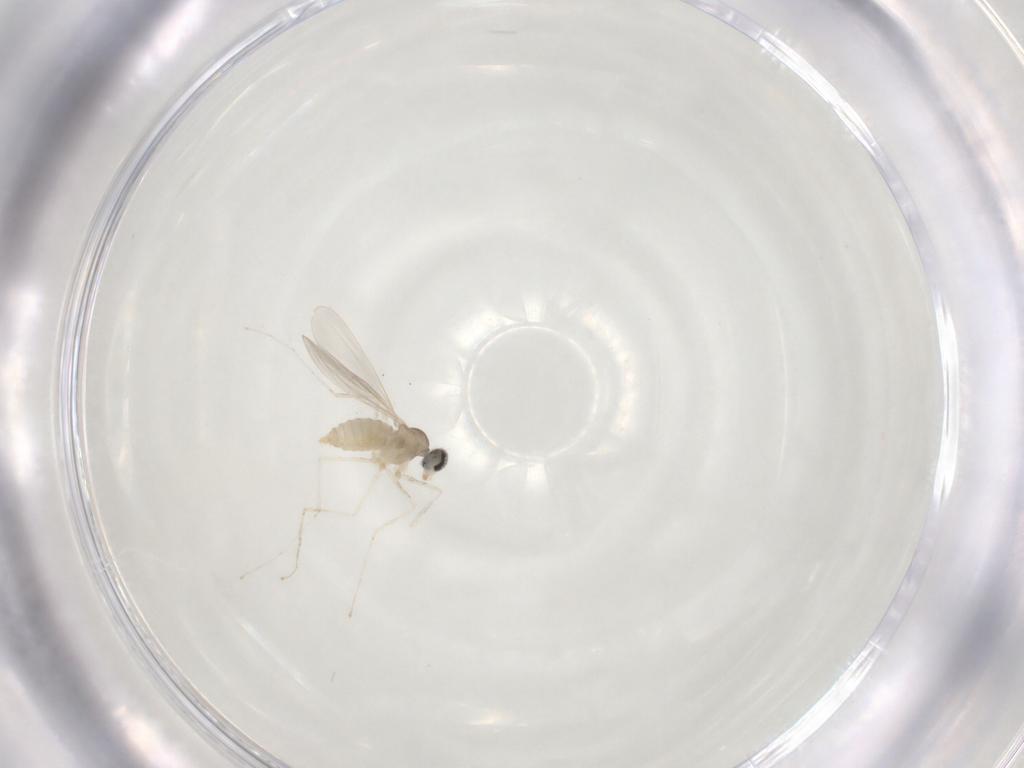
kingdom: Animalia
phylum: Arthropoda
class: Insecta
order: Diptera
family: Cecidomyiidae
